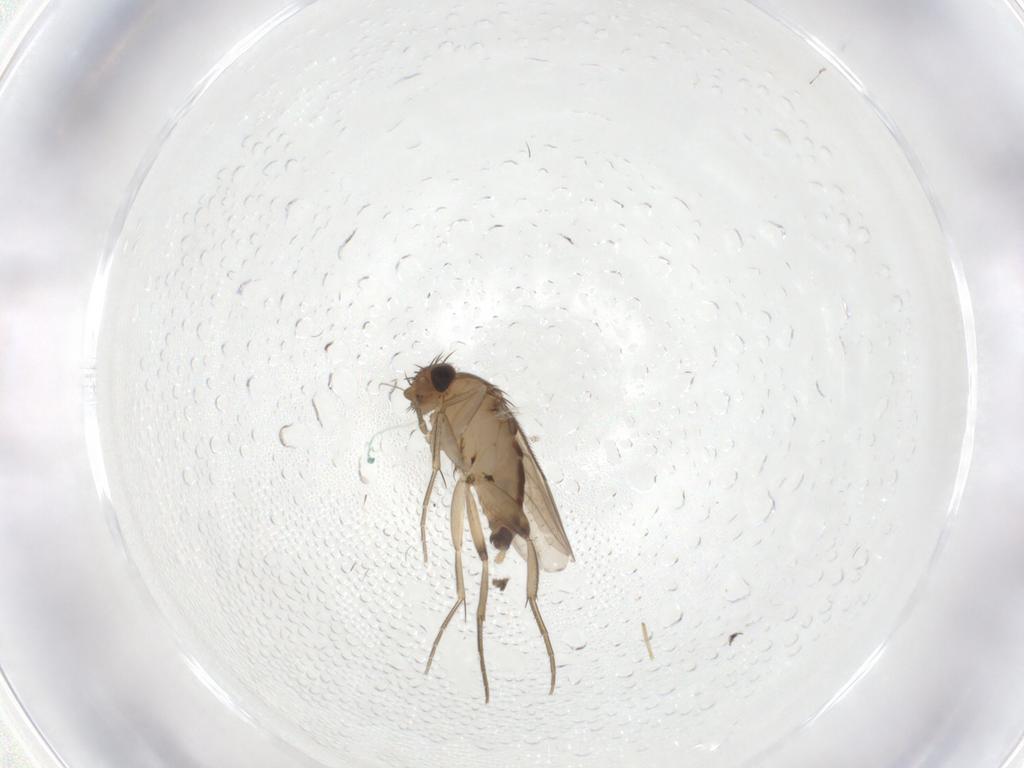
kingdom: Animalia
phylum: Arthropoda
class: Insecta
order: Diptera
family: Phoridae
